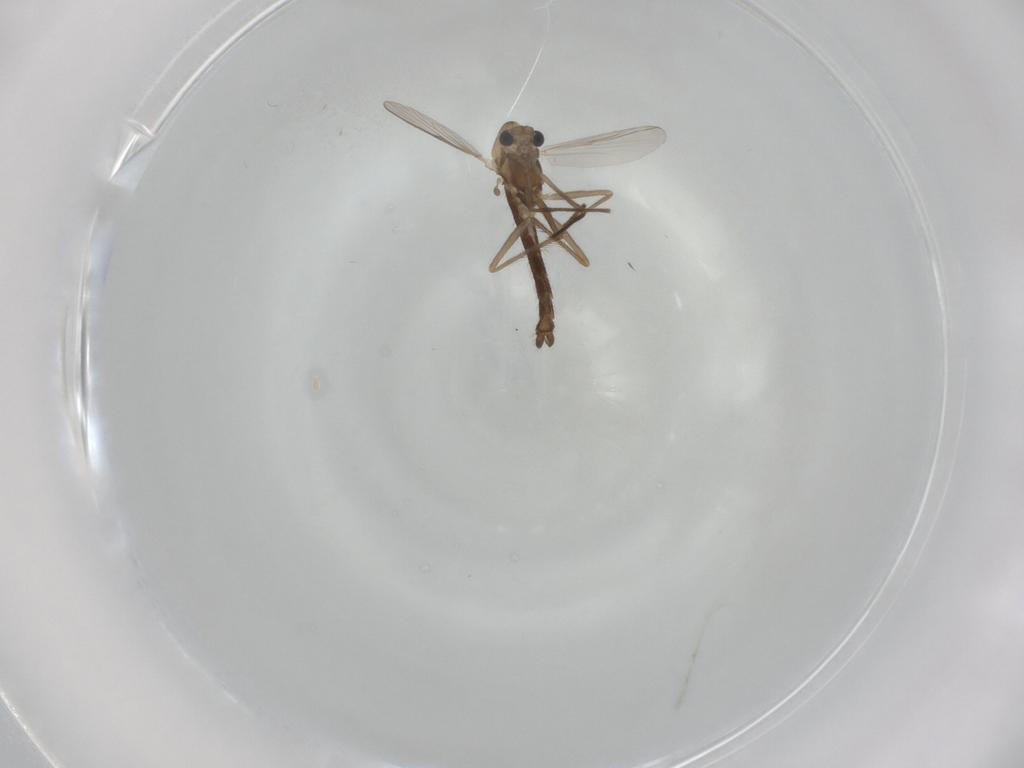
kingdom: Animalia
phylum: Arthropoda
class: Insecta
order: Diptera
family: Chironomidae
